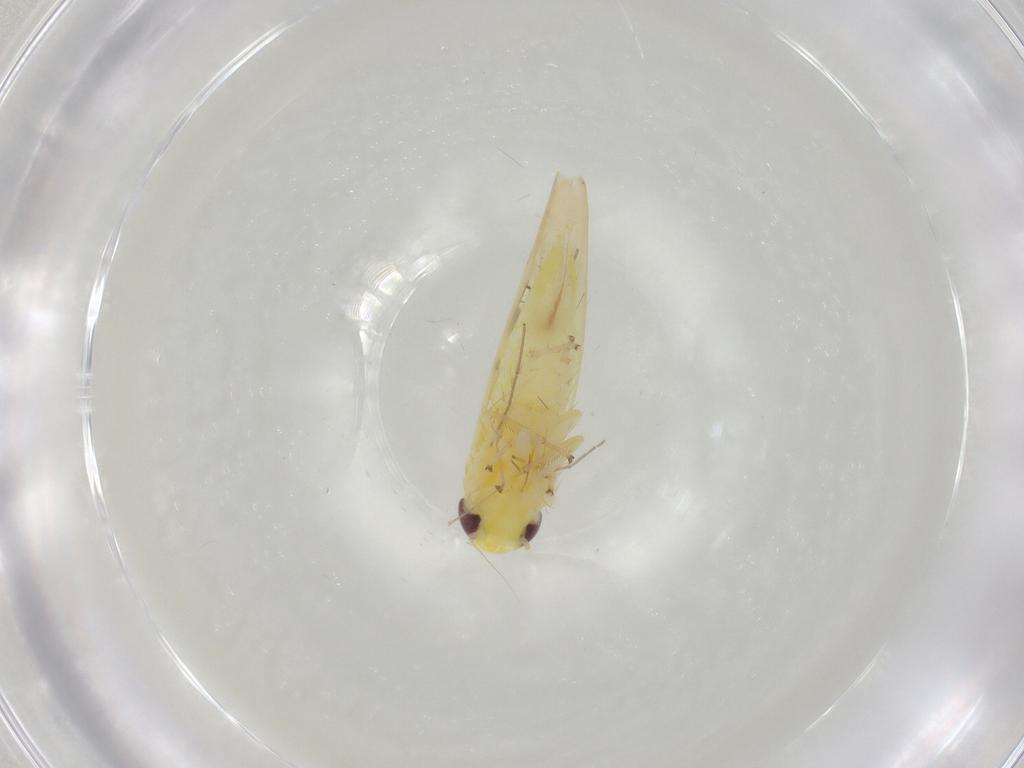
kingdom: Animalia
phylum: Arthropoda
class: Insecta
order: Hemiptera
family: Cicadellidae
